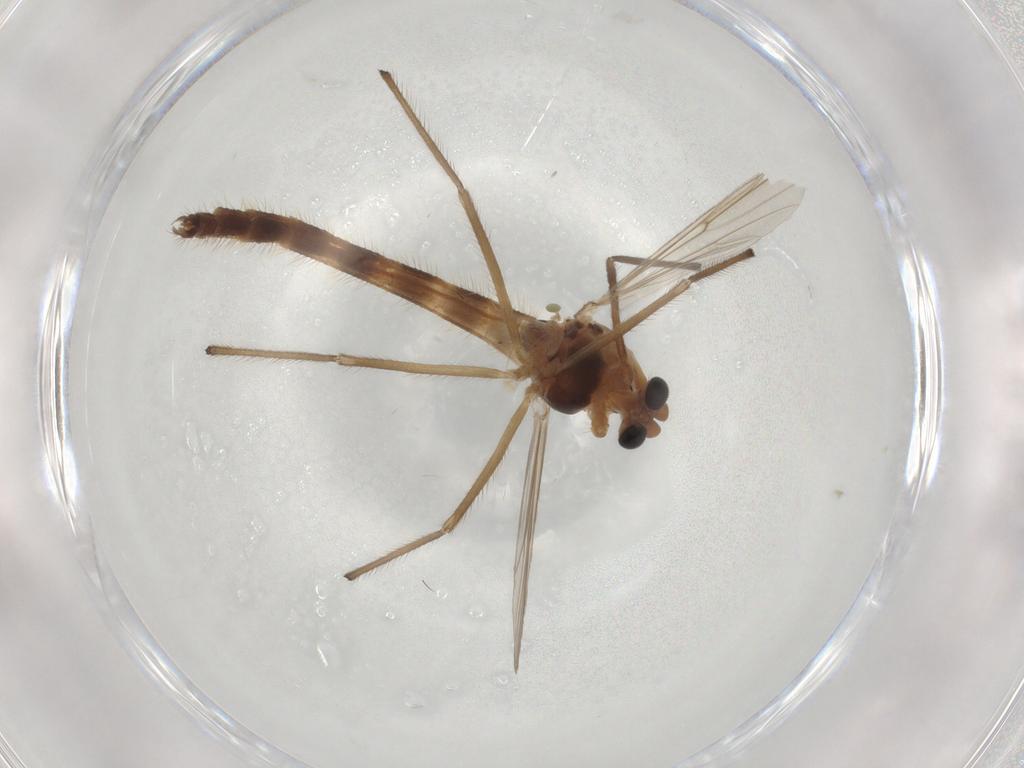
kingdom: Animalia
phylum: Arthropoda
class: Insecta
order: Diptera
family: Chironomidae
